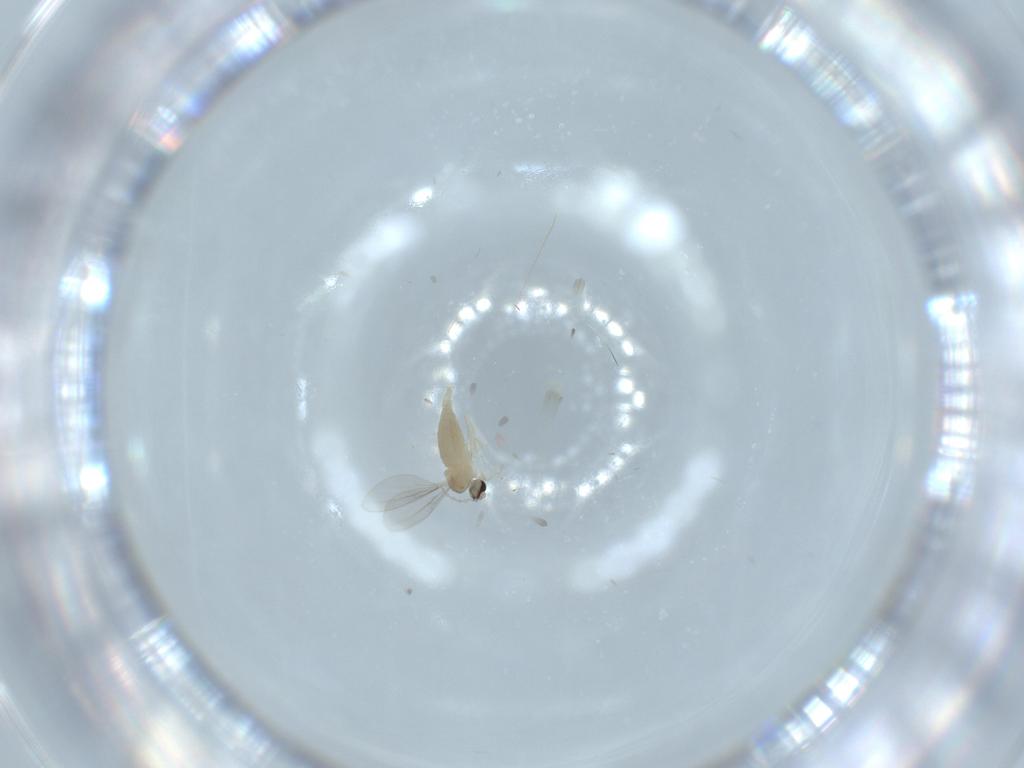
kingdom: Animalia
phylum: Arthropoda
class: Insecta
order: Diptera
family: Cecidomyiidae
